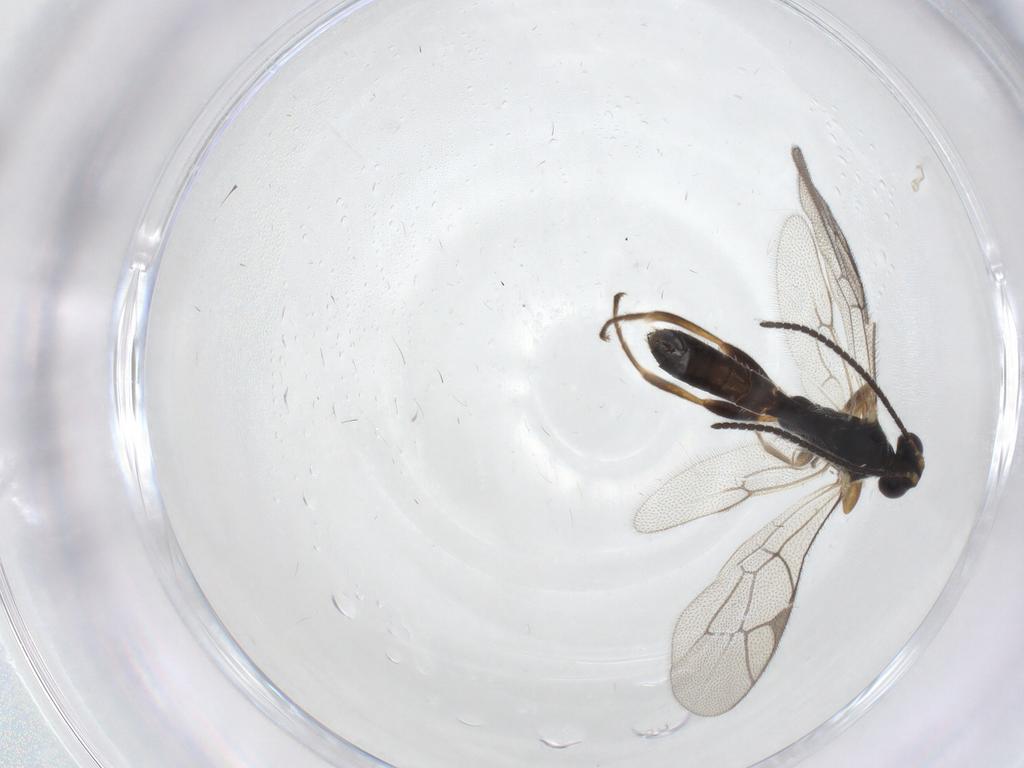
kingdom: Animalia
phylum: Arthropoda
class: Insecta
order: Hymenoptera
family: Ichneumonidae
